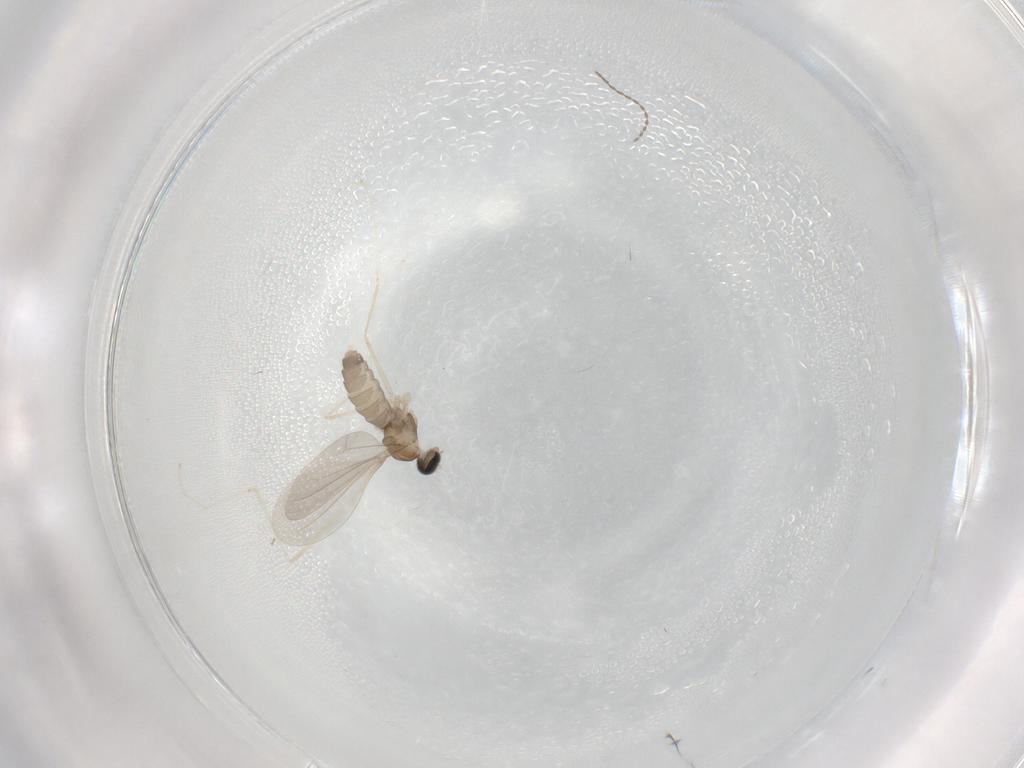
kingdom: Animalia
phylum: Arthropoda
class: Insecta
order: Diptera
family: Cecidomyiidae
